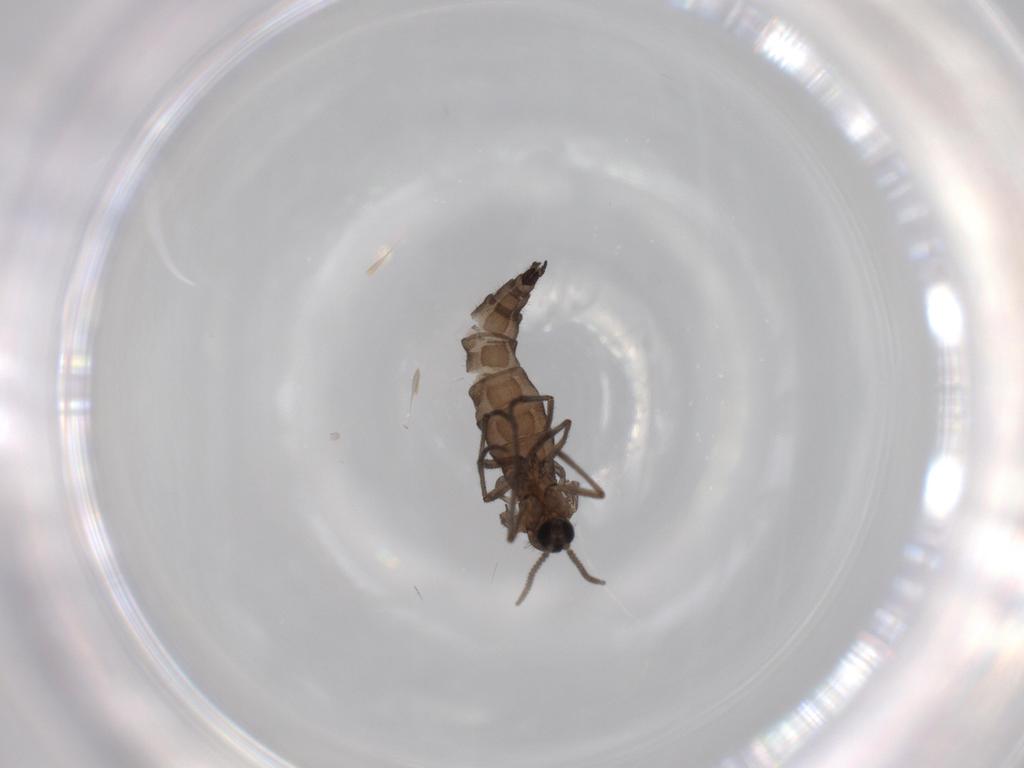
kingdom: Animalia
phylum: Arthropoda
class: Insecta
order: Diptera
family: Sciaridae
